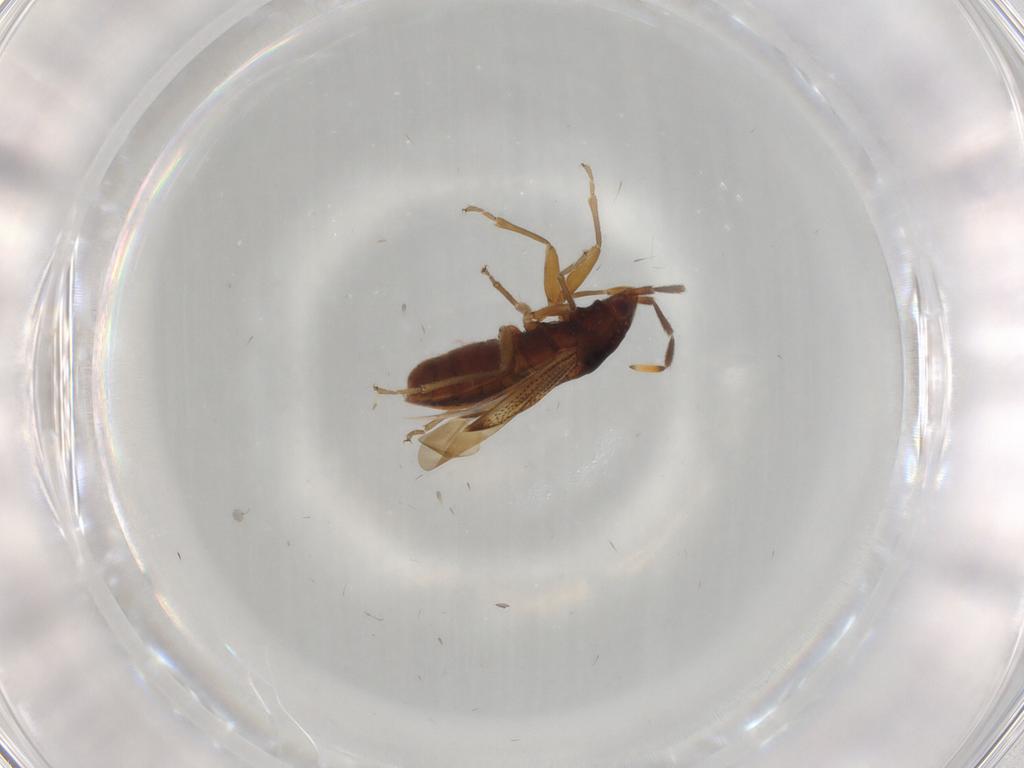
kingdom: Animalia
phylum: Arthropoda
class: Insecta
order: Hemiptera
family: Rhyparochromidae
